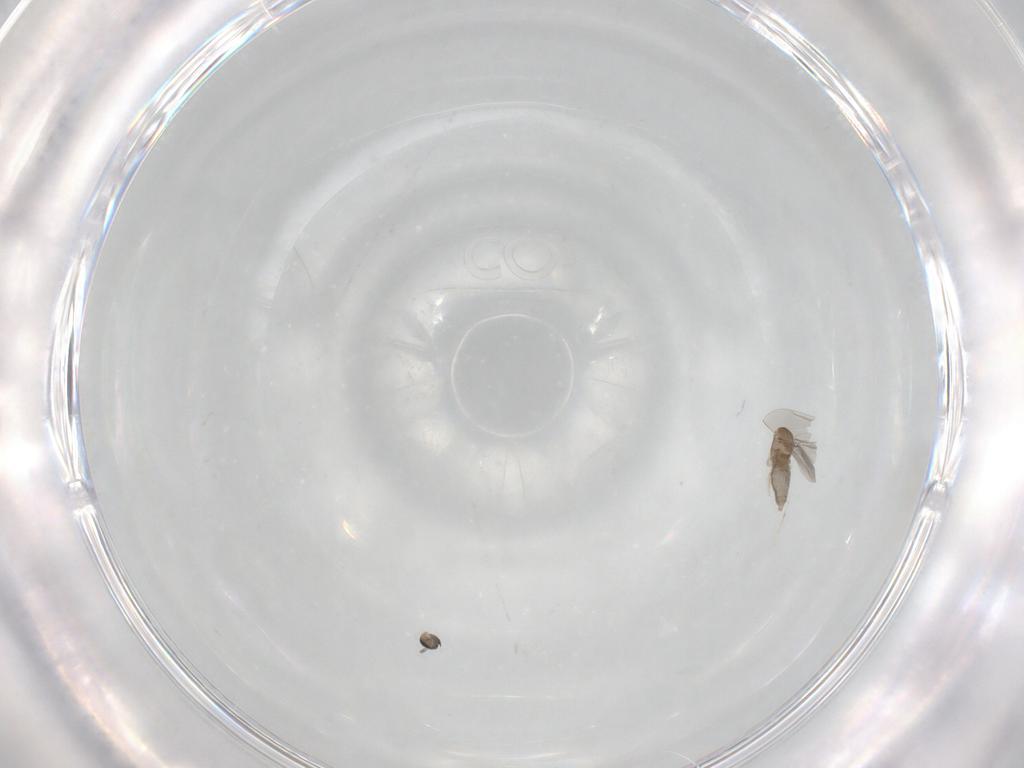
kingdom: Animalia
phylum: Arthropoda
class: Insecta
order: Diptera
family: Cecidomyiidae
